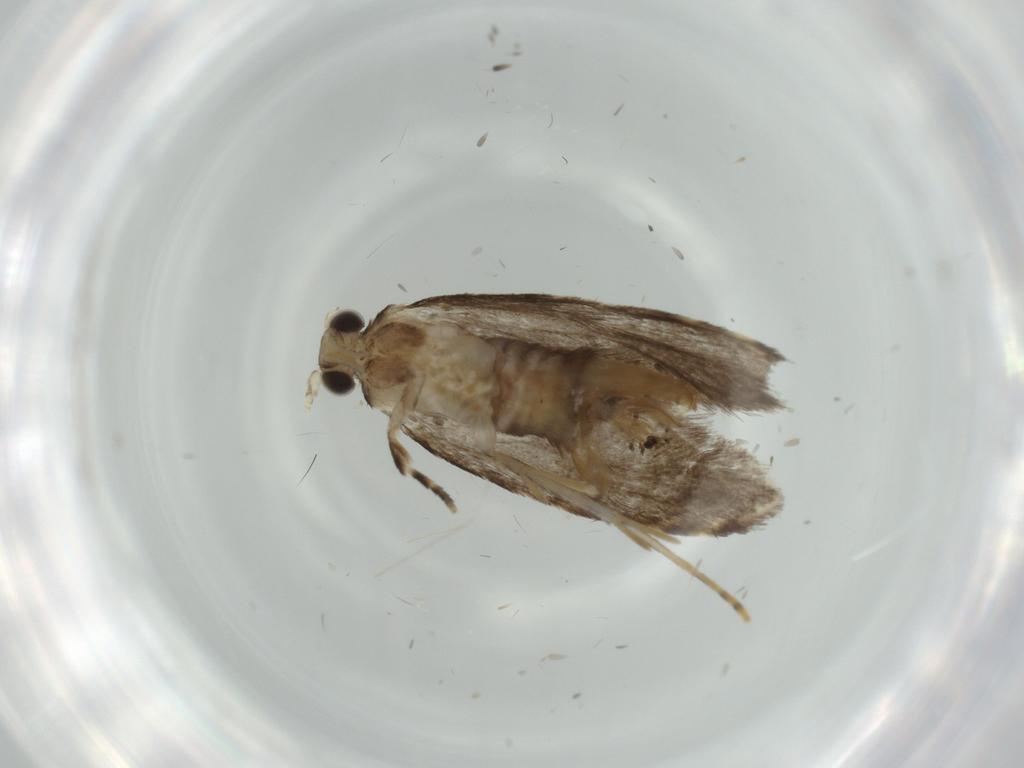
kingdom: Animalia
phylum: Arthropoda
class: Insecta
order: Lepidoptera
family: Tineidae
